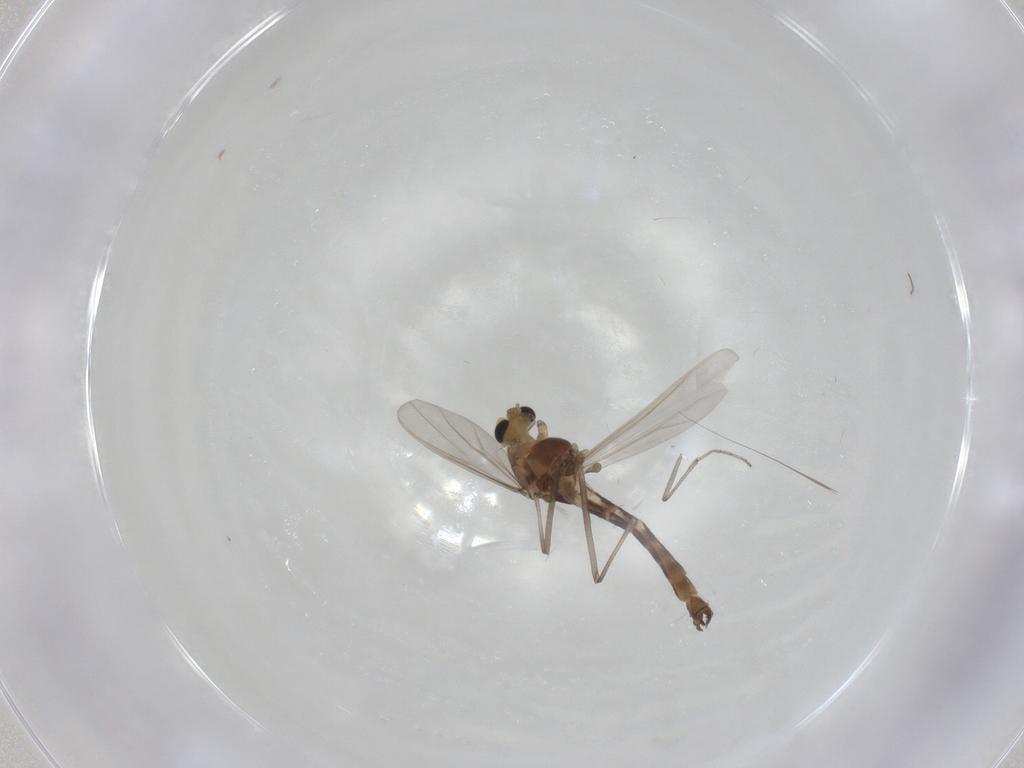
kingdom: Animalia
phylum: Arthropoda
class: Insecta
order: Diptera
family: Chironomidae
